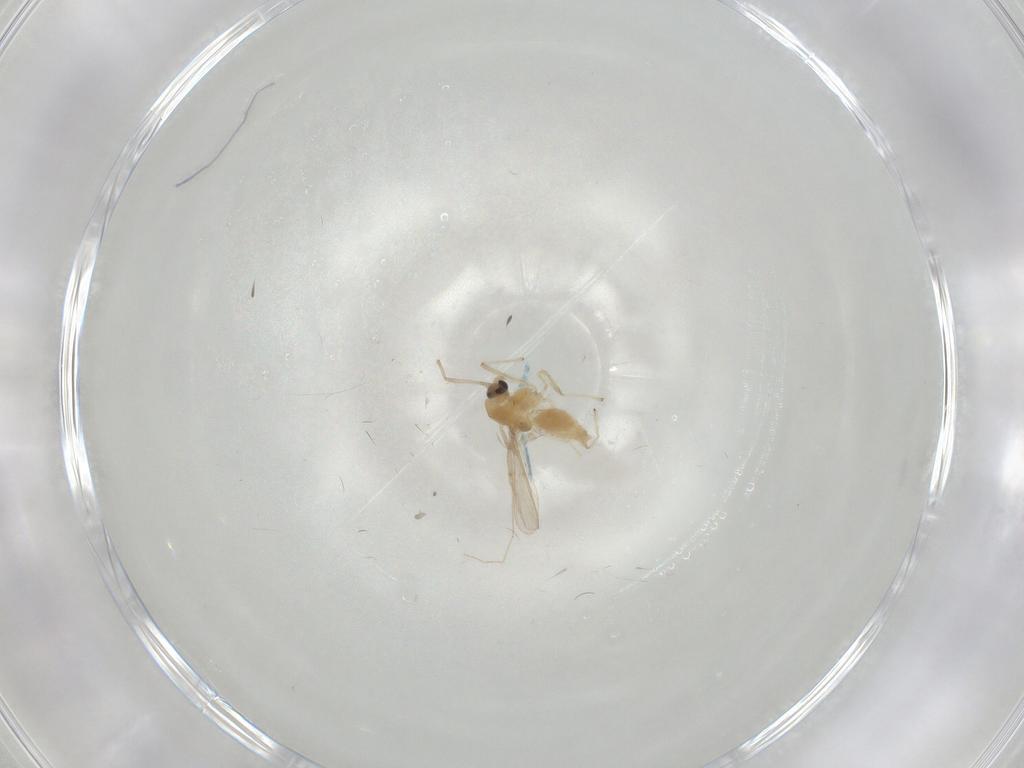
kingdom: Animalia
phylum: Arthropoda
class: Insecta
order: Diptera
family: Chironomidae
